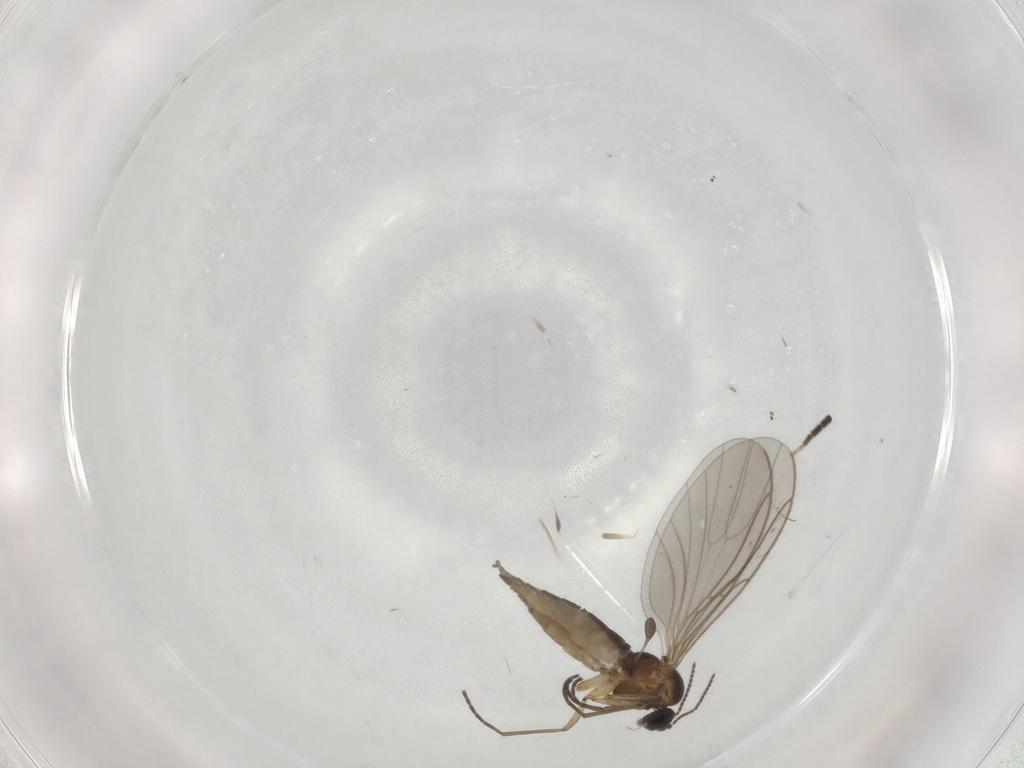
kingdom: Animalia
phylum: Arthropoda
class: Insecta
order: Diptera
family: Sciaridae
